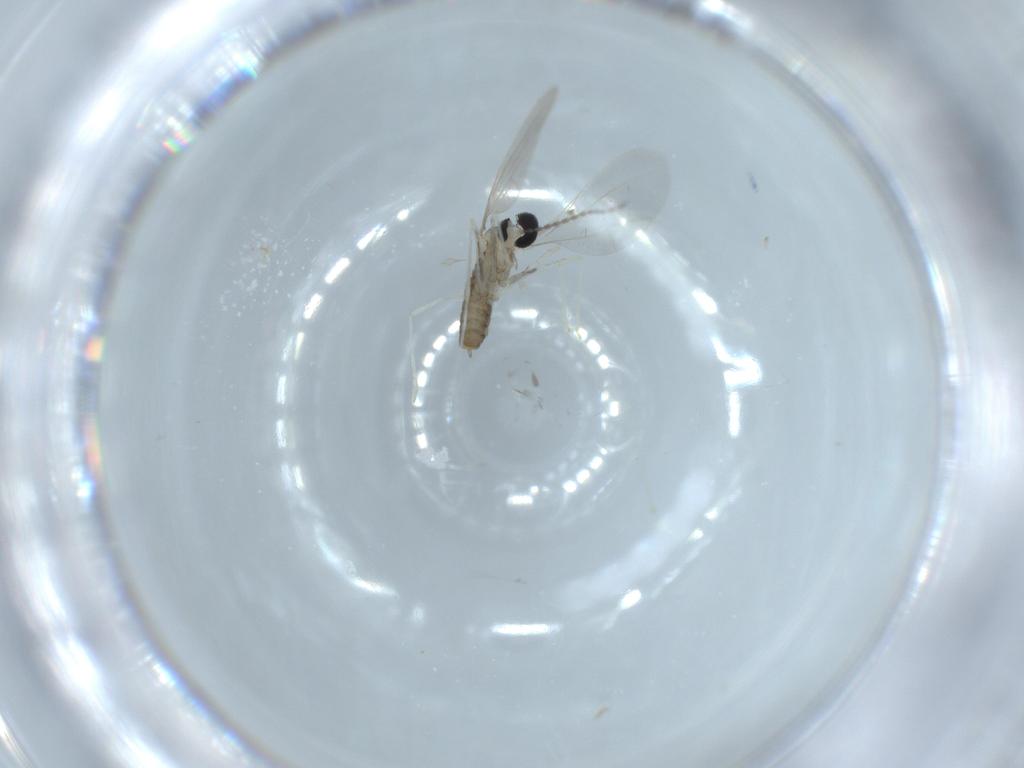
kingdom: Animalia
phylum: Arthropoda
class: Insecta
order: Diptera
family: Cecidomyiidae
